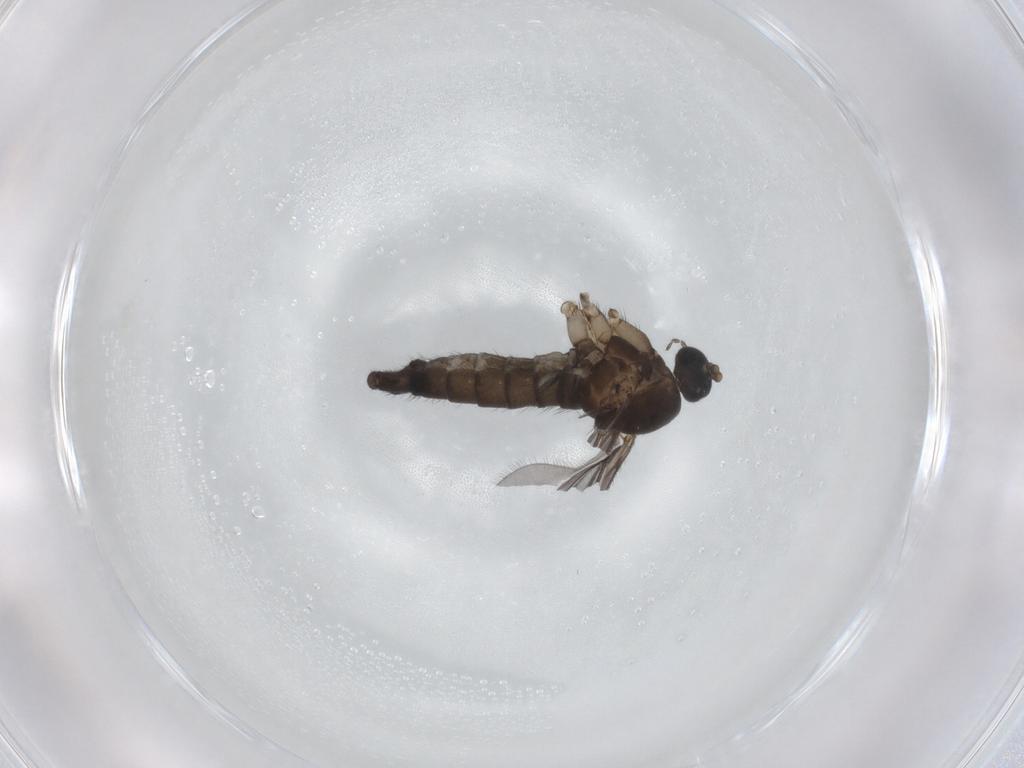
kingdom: Animalia
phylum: Arthropoda
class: Insecta
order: Diptera
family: Sciaridae
